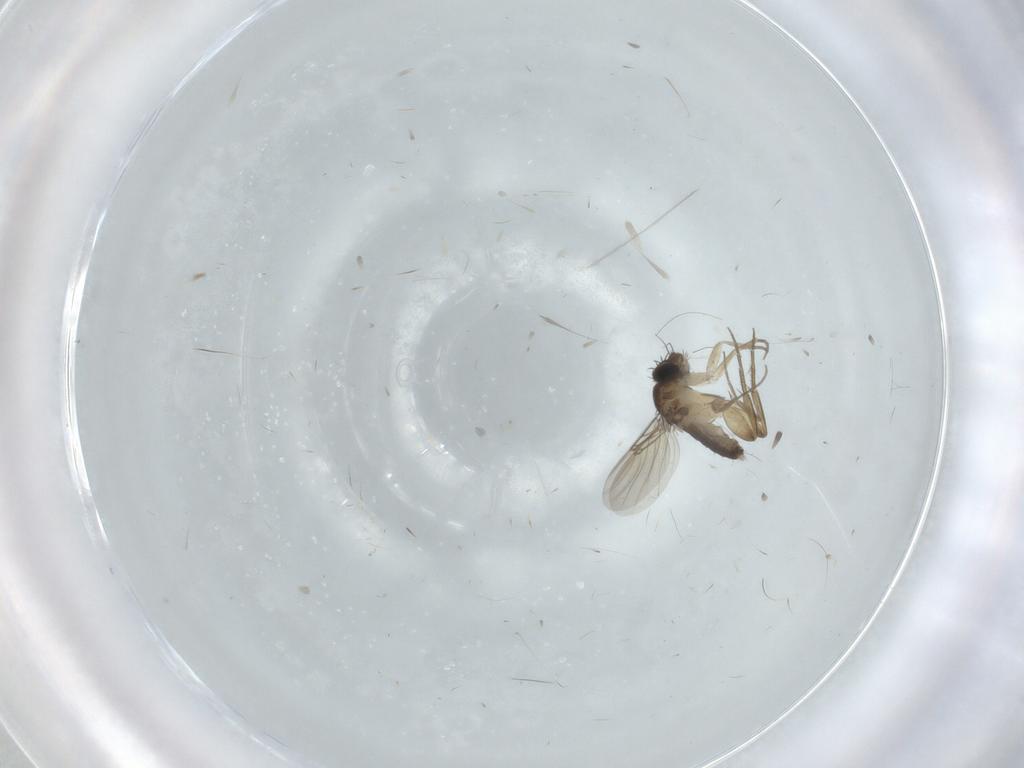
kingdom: Animalia
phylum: Arthropoda
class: Insecta
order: Diptera
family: Phoridae
